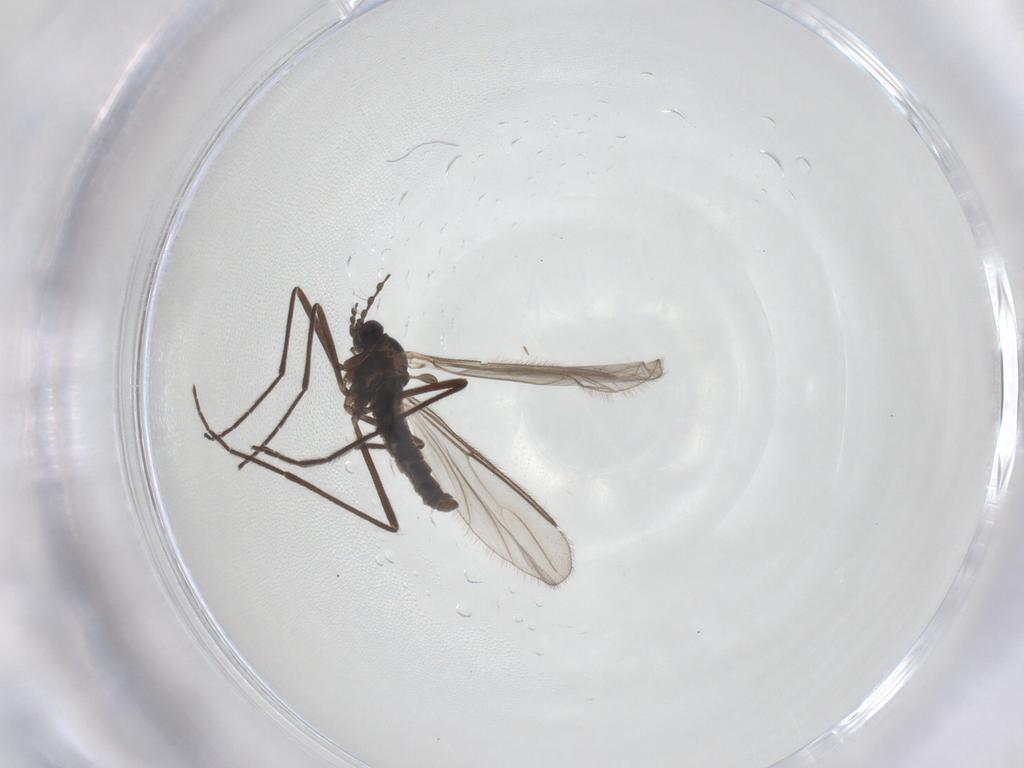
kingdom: Animalia
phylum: Arthropoda
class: Insecta
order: Diptera
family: Cecidomyiidae
